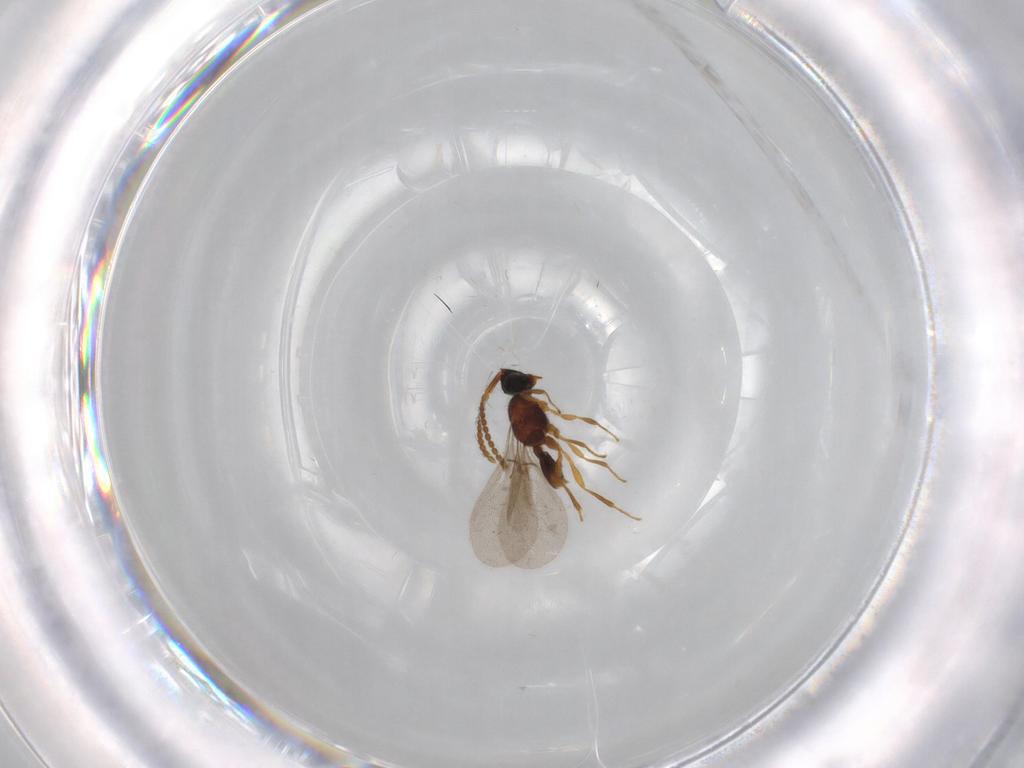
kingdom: Animalia
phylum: Arthropoda
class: Insecta
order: Hymenoptera
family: Diapriidae
